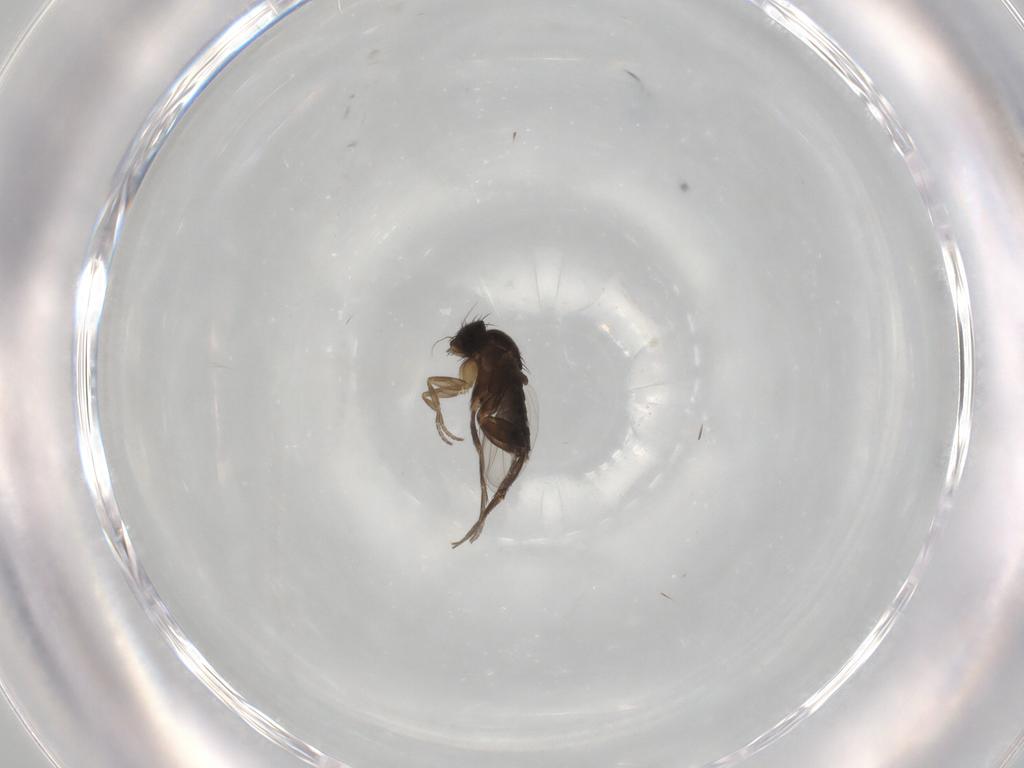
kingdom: Animalia
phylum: Arthropoda
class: Insecta
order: Diptera
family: Phoridae
